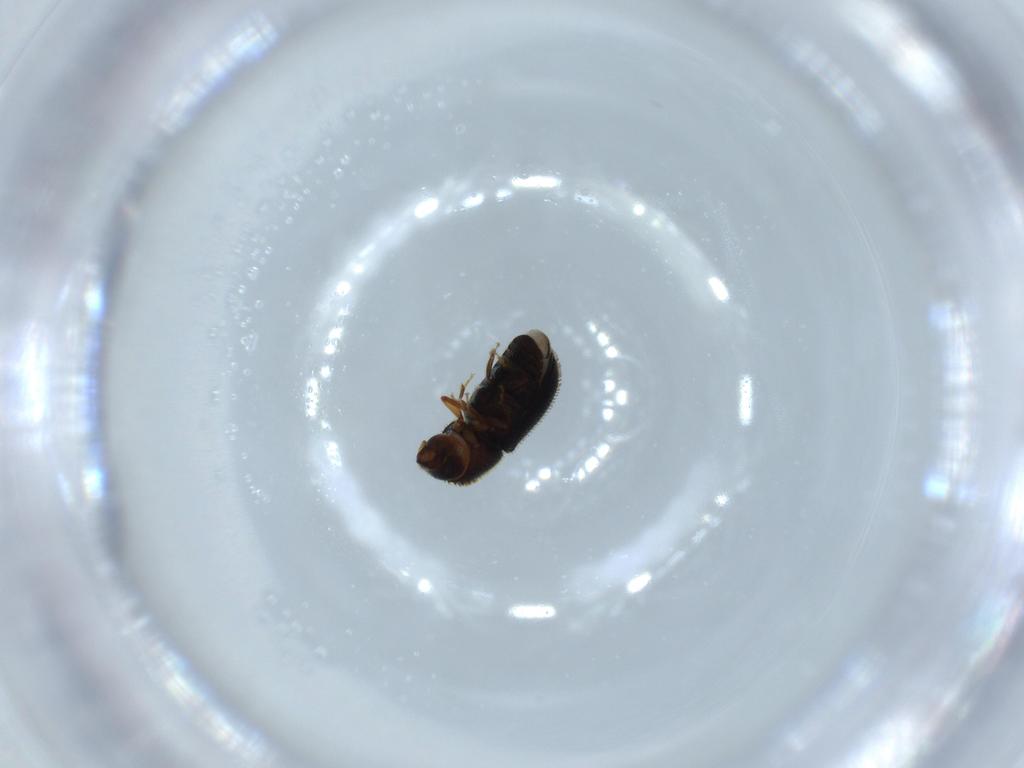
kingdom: Animalia
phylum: Arthropoda
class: Insecta
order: Coleoptera
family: Curculionidae
